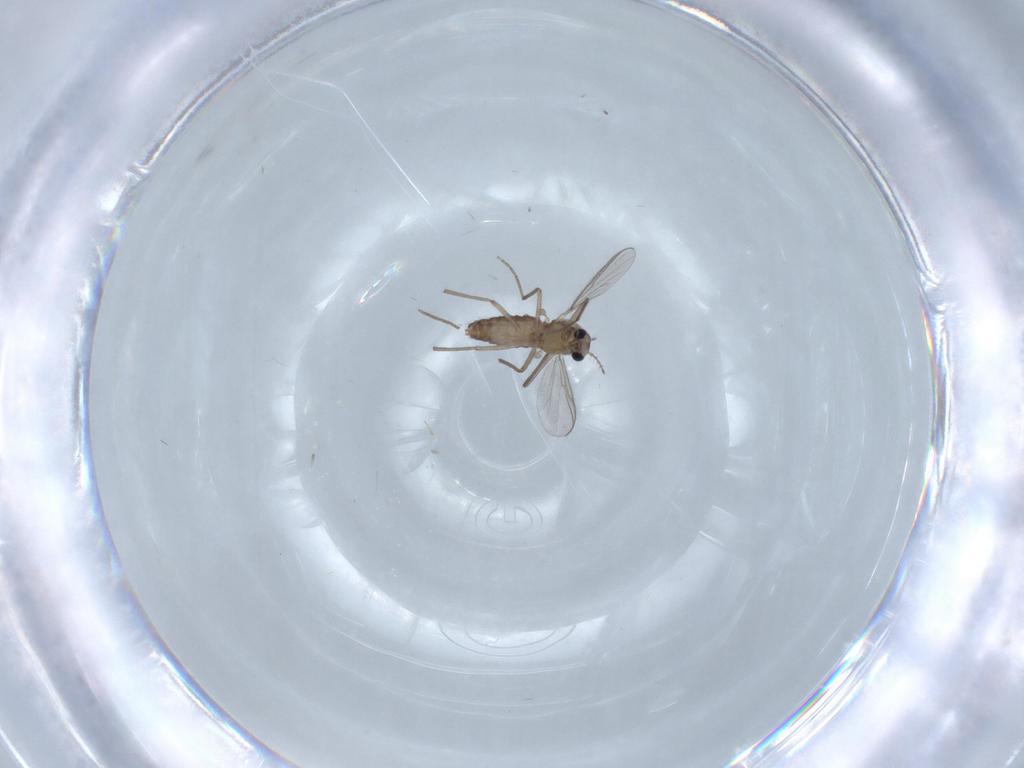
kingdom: Animalia
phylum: Arthropoda
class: Insecta
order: Diptera
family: Chironomidae
